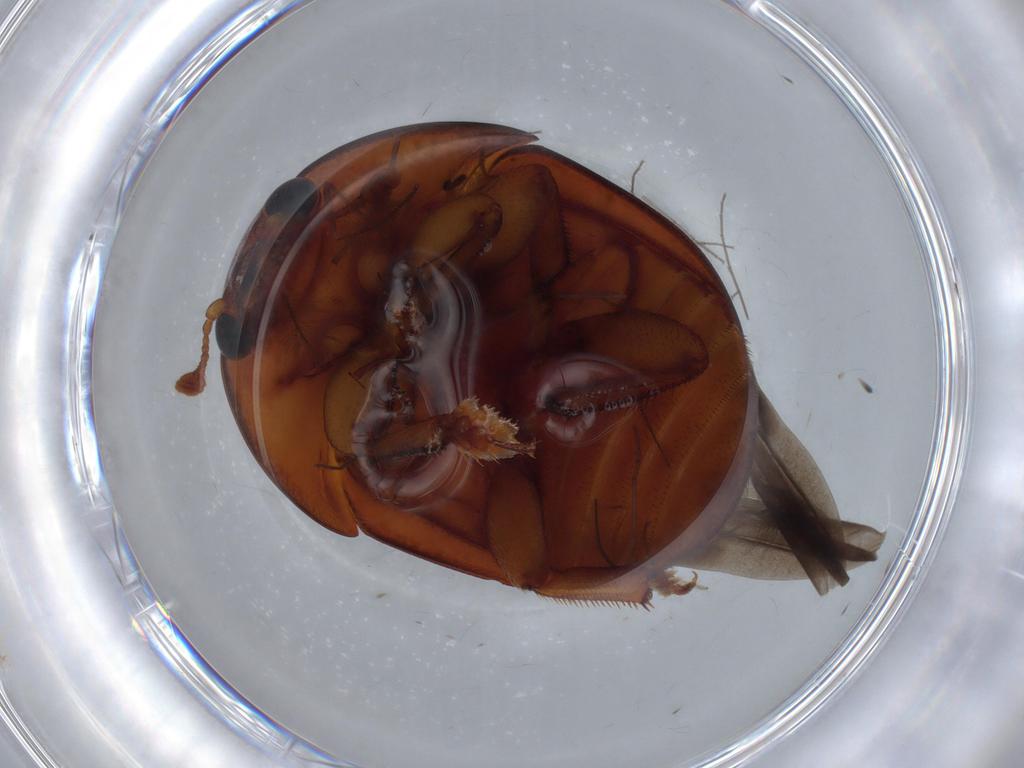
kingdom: Animalia
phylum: Arthropoda
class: Insecta
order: Coleoptera
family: Nitidulidae
